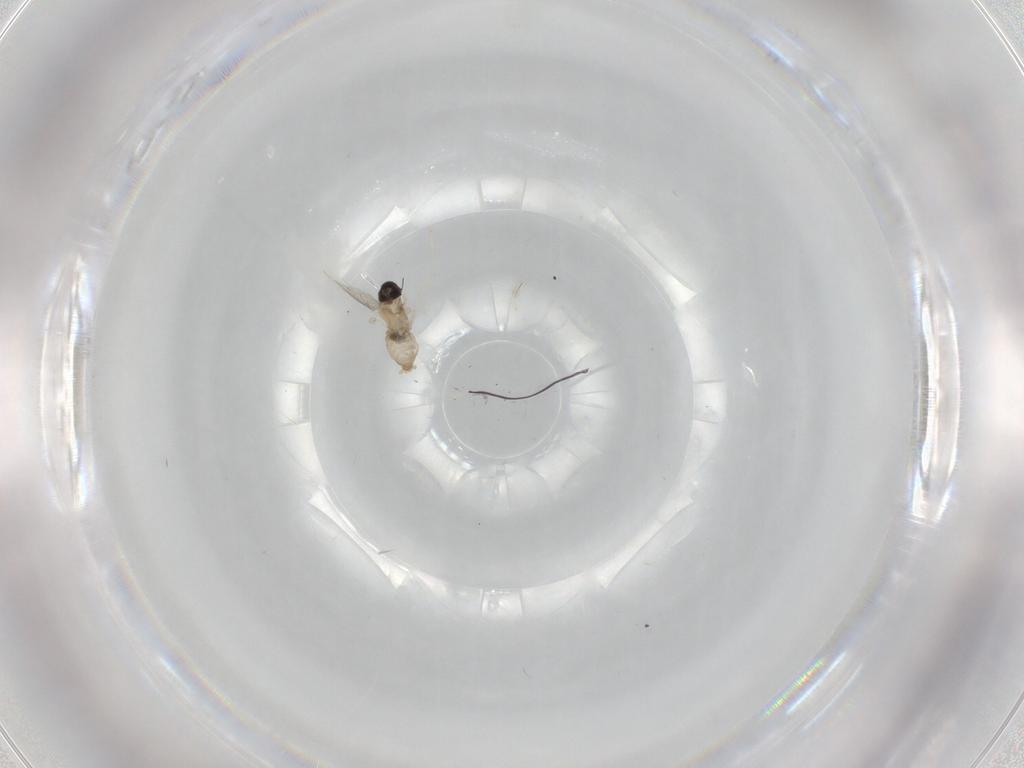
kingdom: Animalia
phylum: Arthropoda
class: Insecta
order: Diptera
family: Cecidomyiidae
